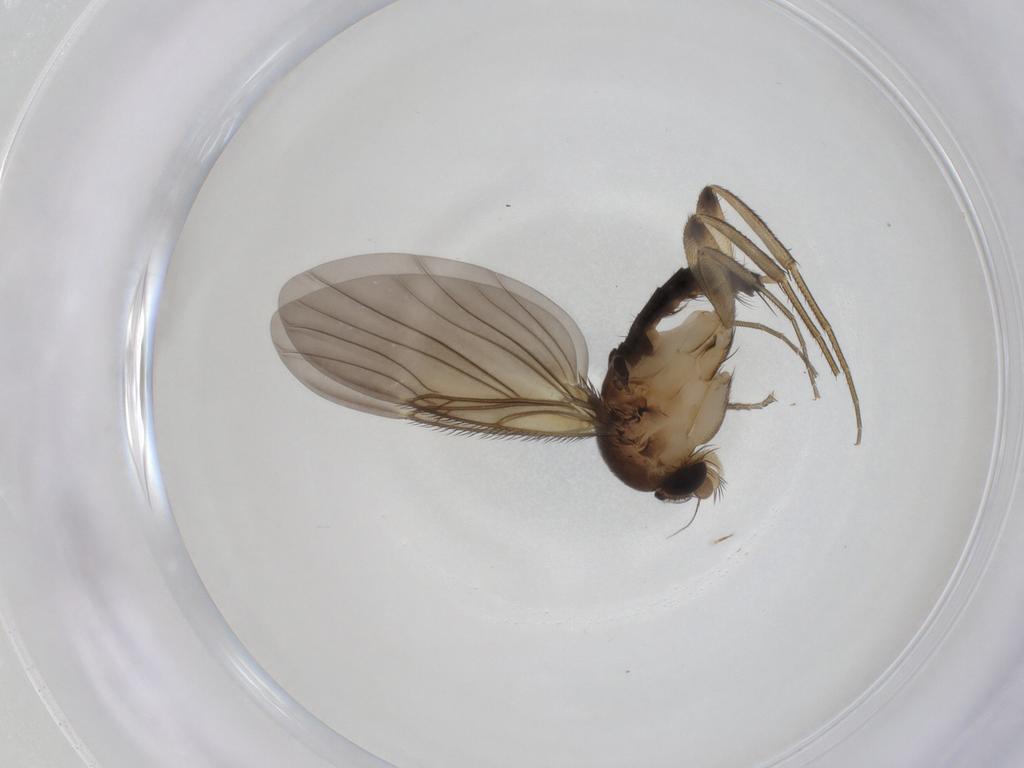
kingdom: Animalia
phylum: Arthropoda
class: Insecta
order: Diptera
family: Phoridae
